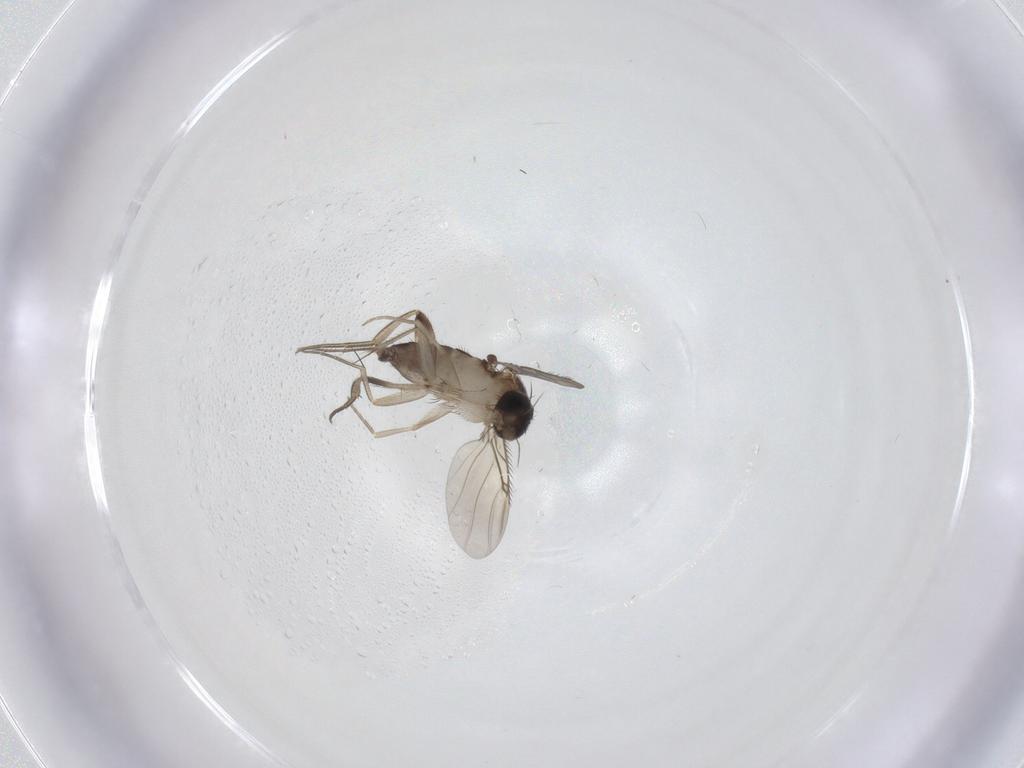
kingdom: Animalia
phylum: Arthropoda
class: Insecta
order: Diptera
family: Phoridae
